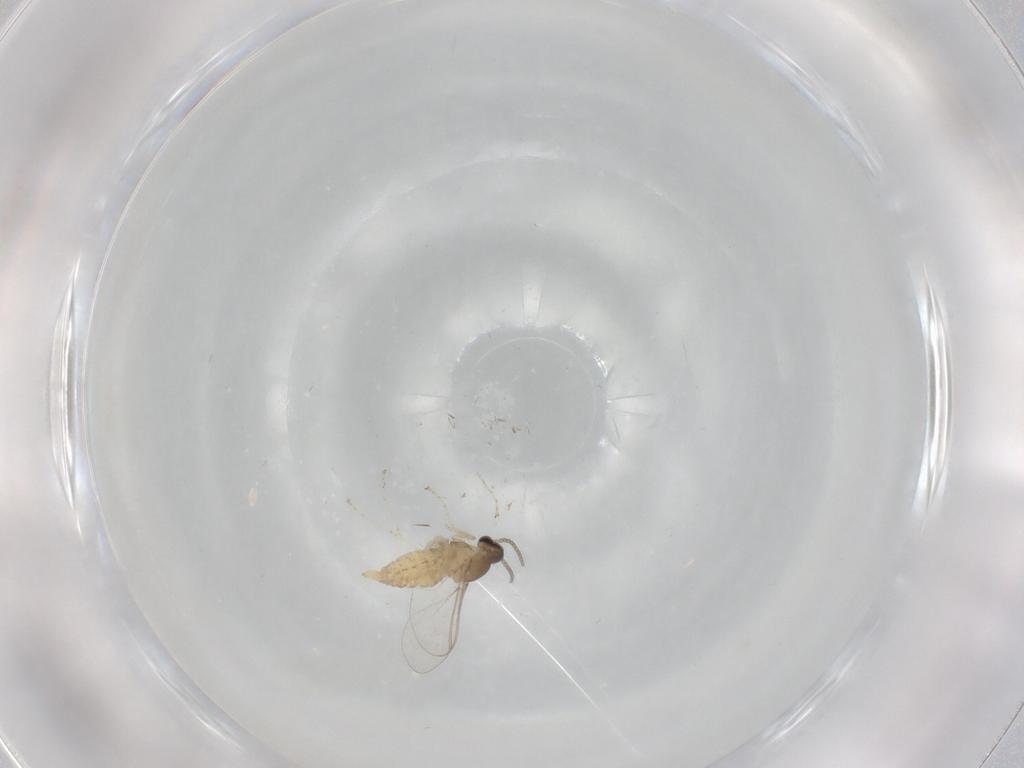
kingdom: Animalia
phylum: Arthropoda
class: Insecta
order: Diptera
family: Cecidomyiidae
